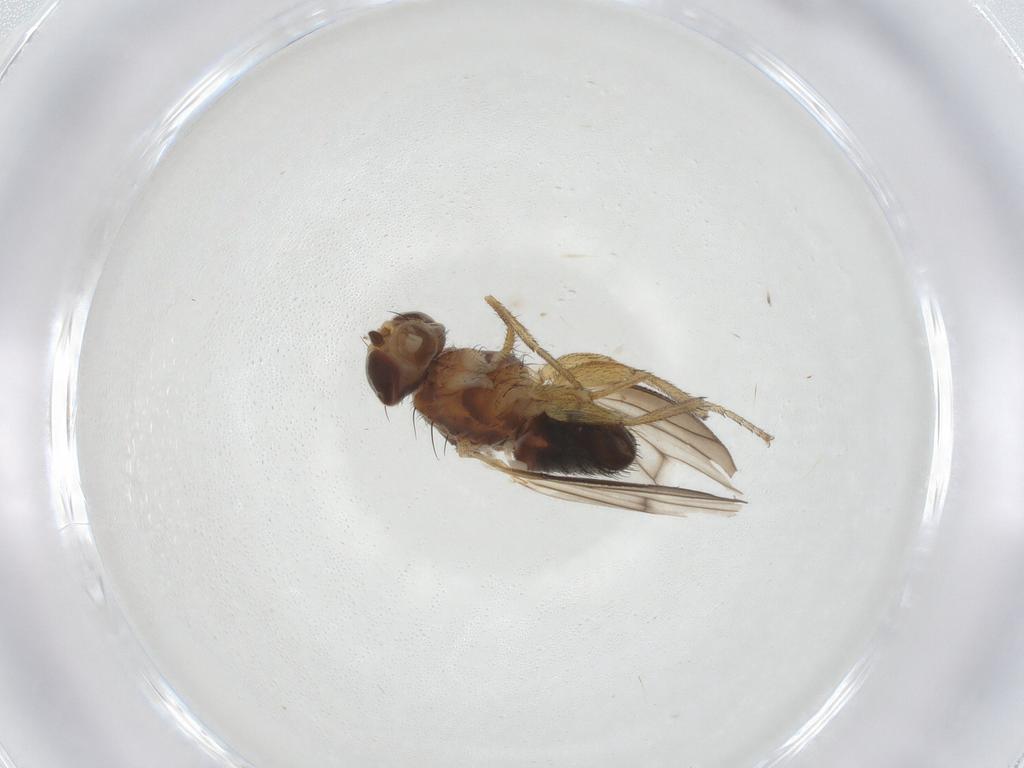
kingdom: Animalia
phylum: Arthropoda
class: Insecta
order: Diptera
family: Heleomyzidae
